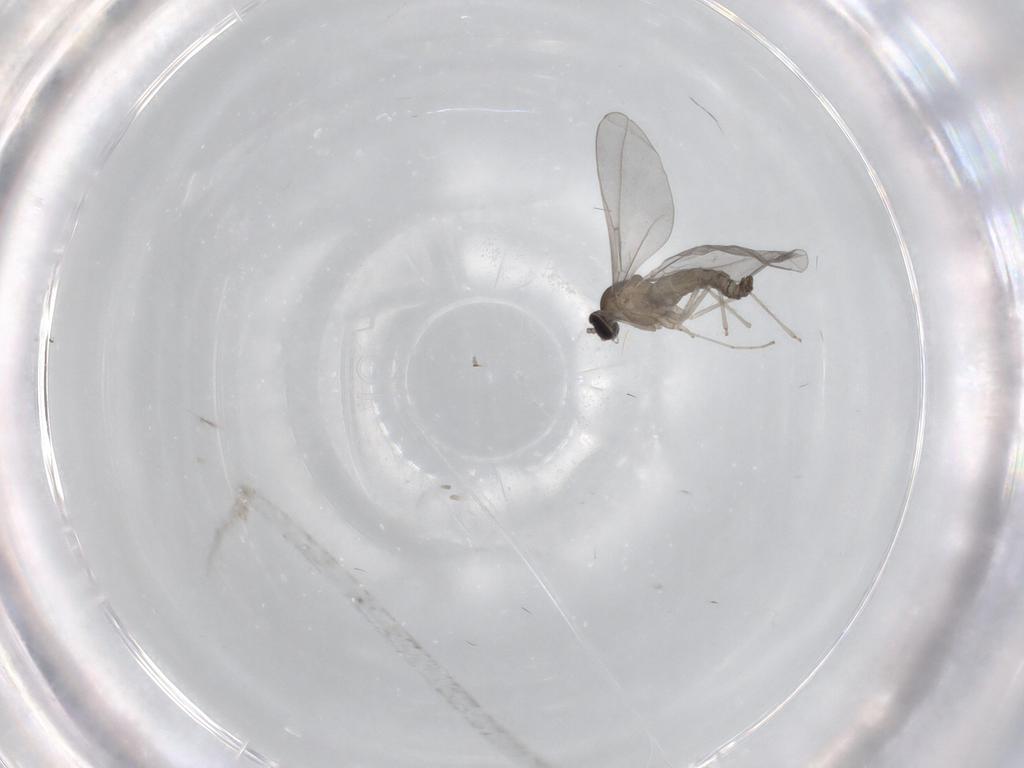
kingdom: Animalia
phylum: Arthropoda
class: Insecta
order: Diptera
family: Cecidomyiidae
